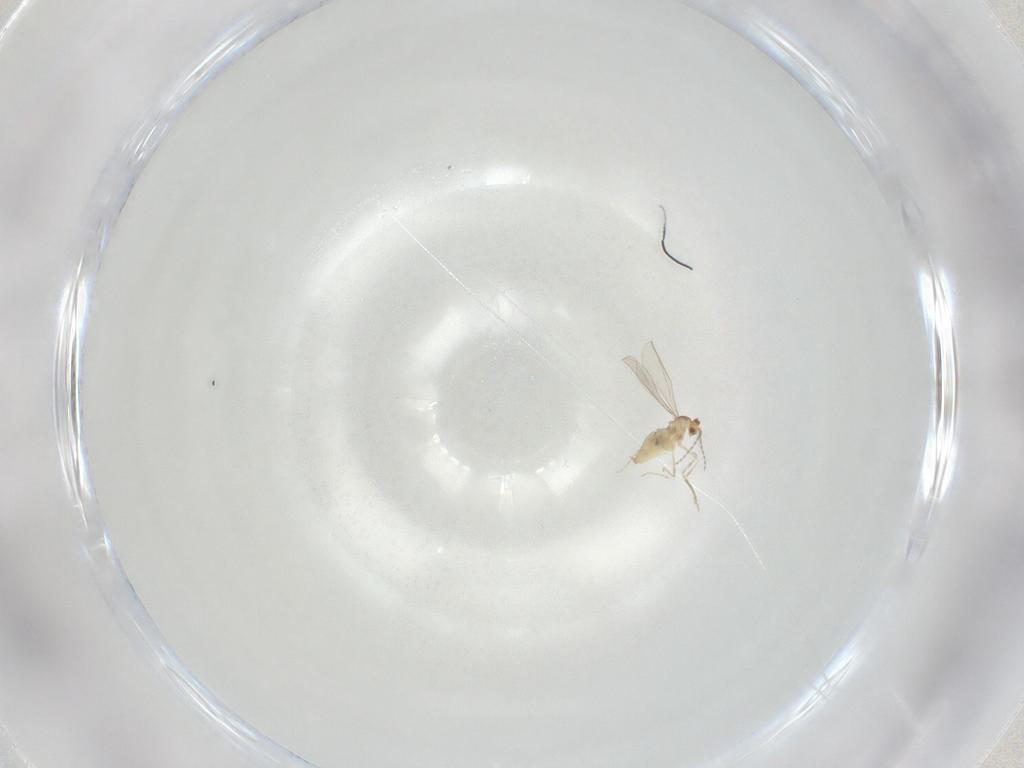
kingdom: Animalia
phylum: Arthropoda
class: Insecta
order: Diptera
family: Cecidomyiidae
